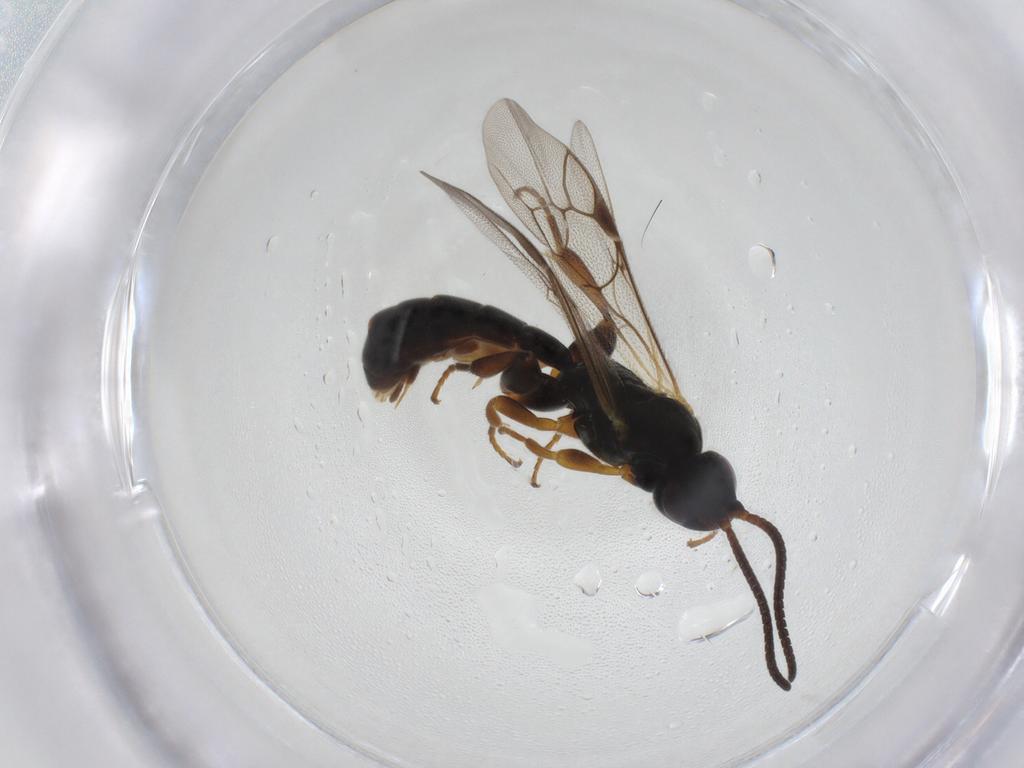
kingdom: Animalia
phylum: Arthropoda
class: Insecta
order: Hymenoptera
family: Ichneumonidae
